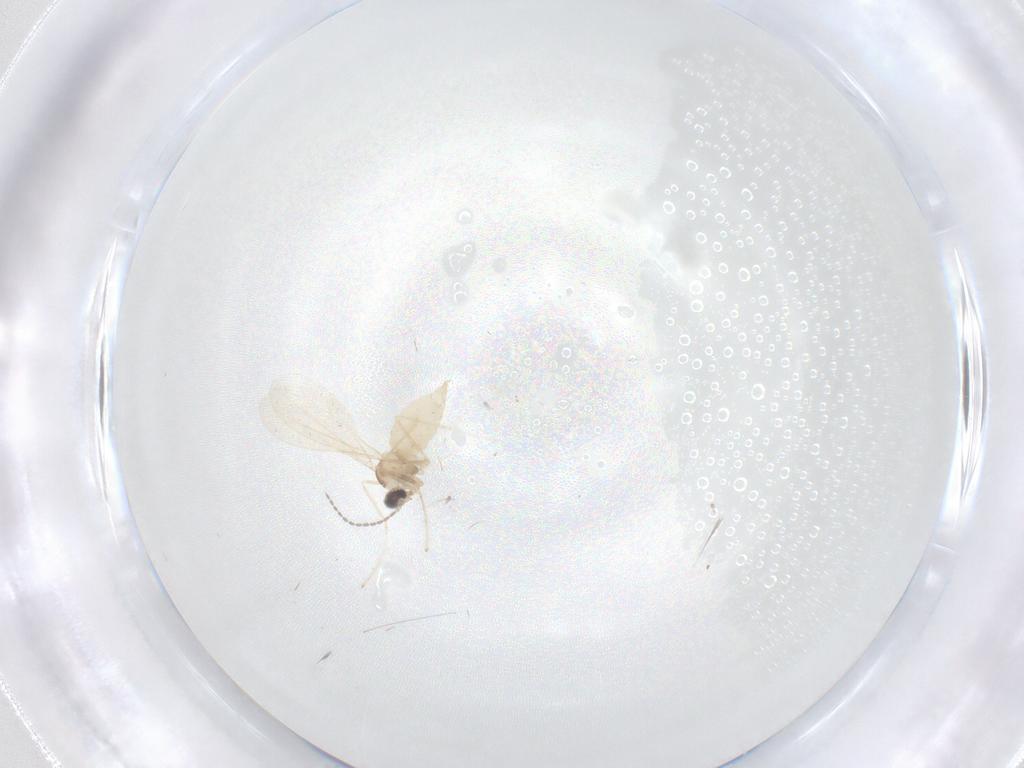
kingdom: Animalia
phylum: Arthropoda
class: Insecta
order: Diptera
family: Cecidomyiidae
